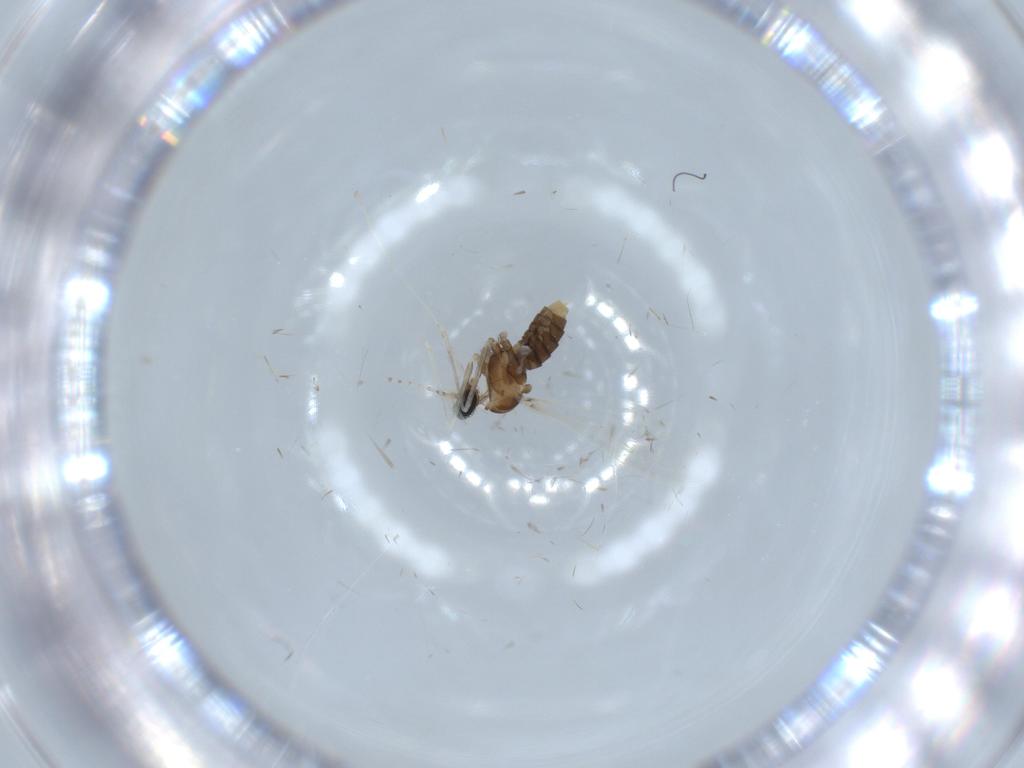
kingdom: Animalia
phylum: Arthropoda
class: Insecta
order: Diptera
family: Cecidomyiidae
